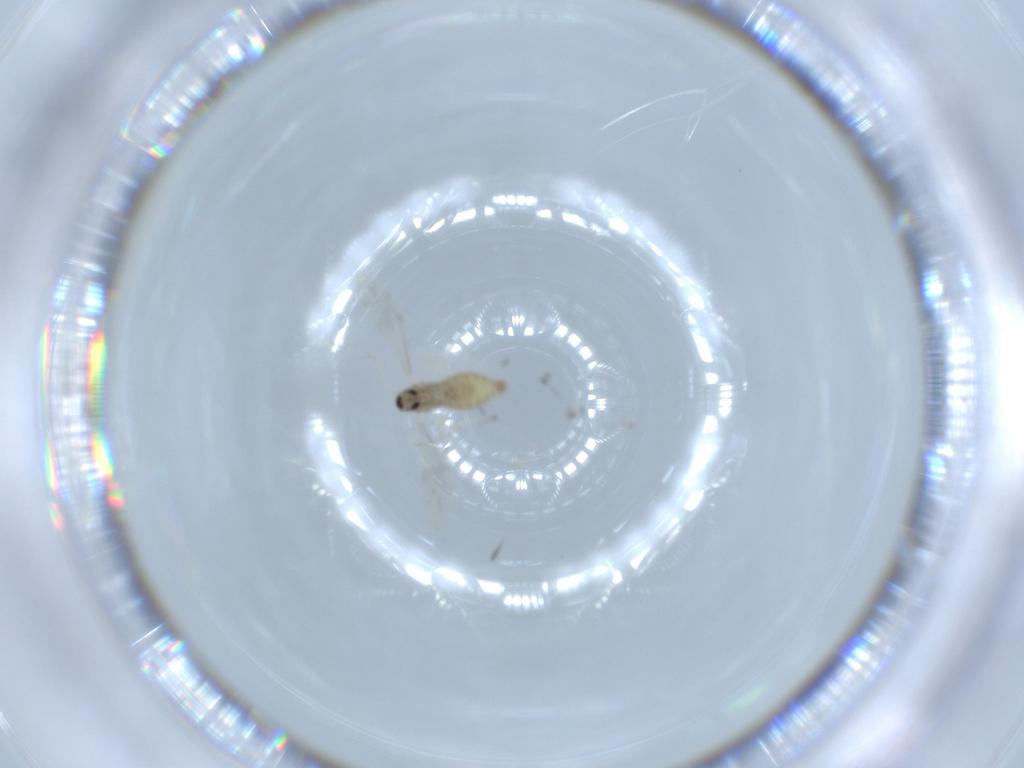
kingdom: Animalia
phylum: Arthropoda
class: Insecta
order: Diptera
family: Cecidomyiidae
